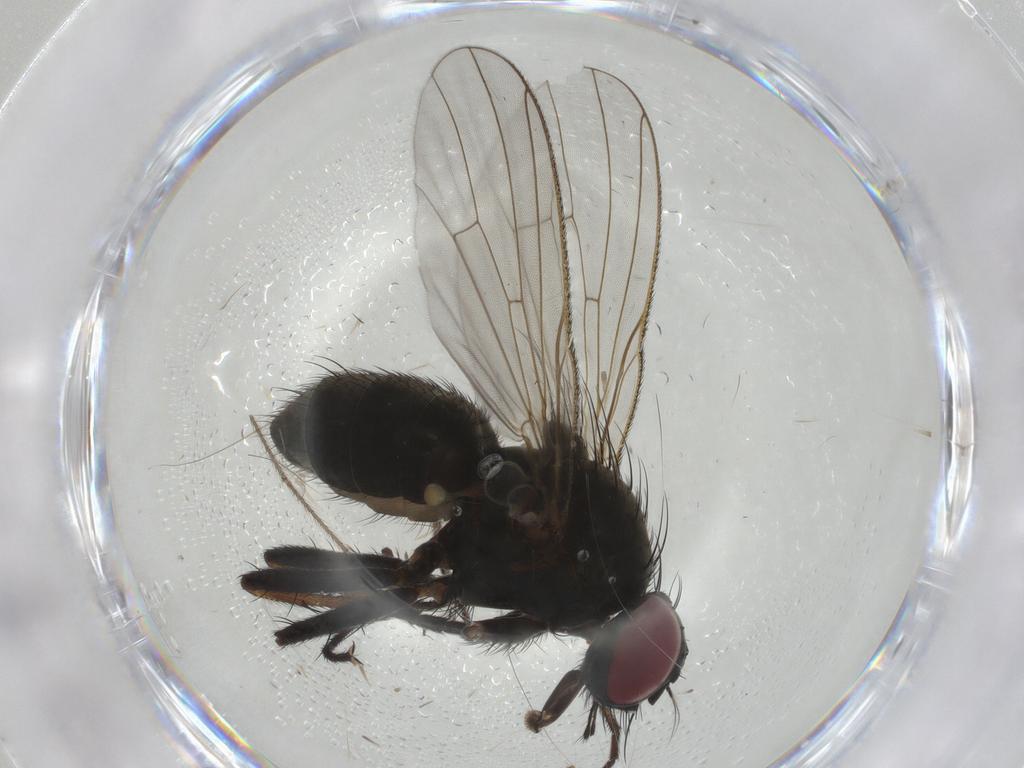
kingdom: Animalia
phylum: Arthropoda
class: Insecta
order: Diptera
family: Muscidae
